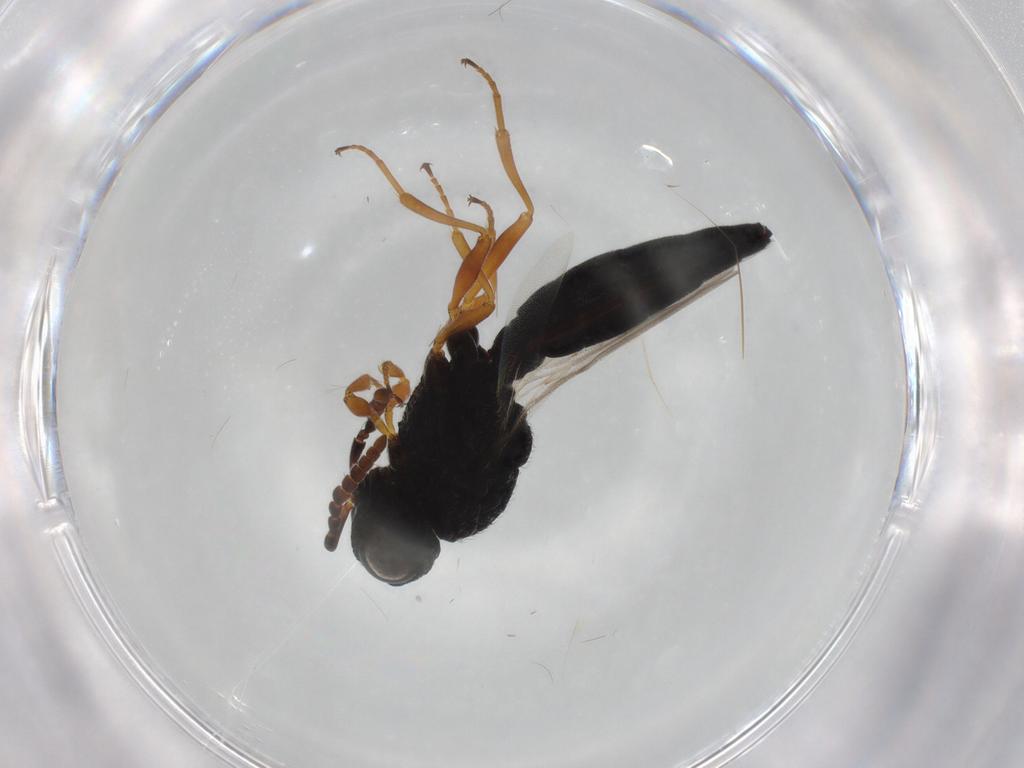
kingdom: Animalia
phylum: Arthropoda
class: Insecta
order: Hymenoptera
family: Scelionidae
